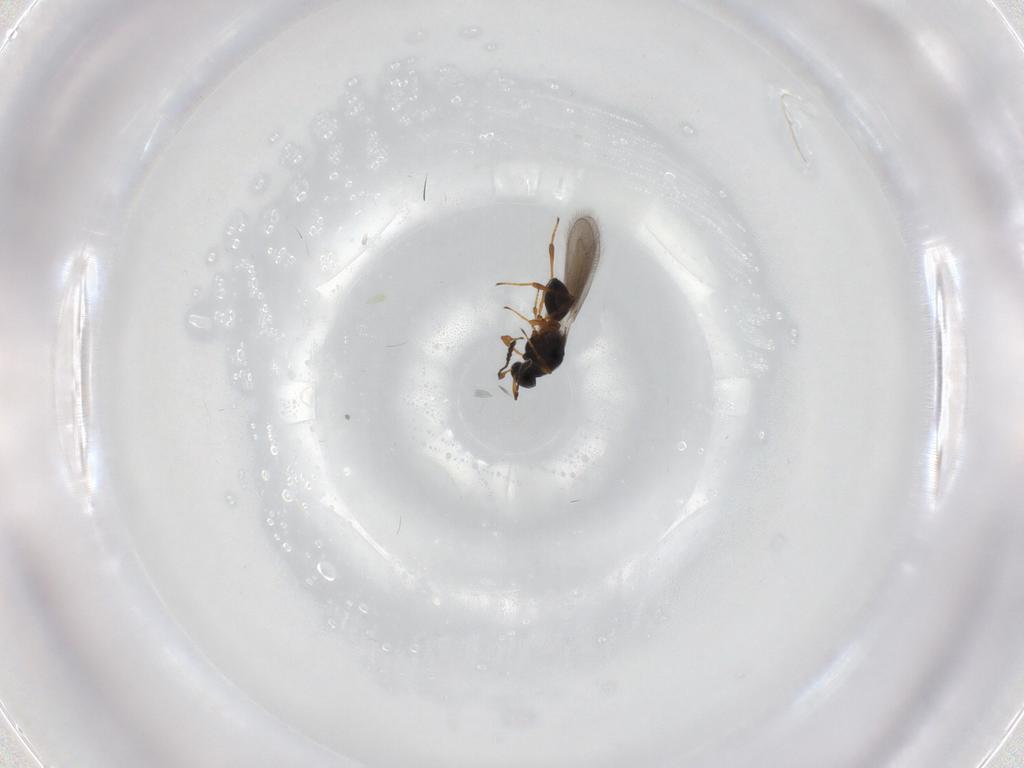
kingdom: Animalia
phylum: Arthropoda
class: Insecta
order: Hymenoptera
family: Platygastridae
